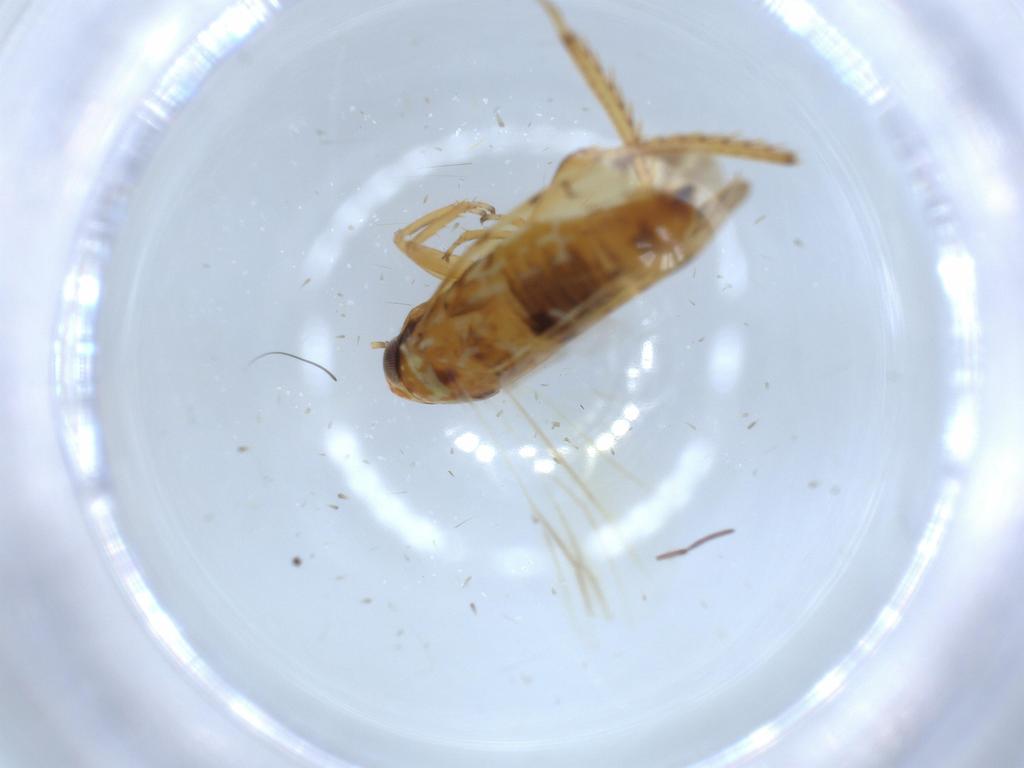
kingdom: Animalia
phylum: Arthropoda
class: Insecta
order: Hemiptera
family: Cicadellidae
